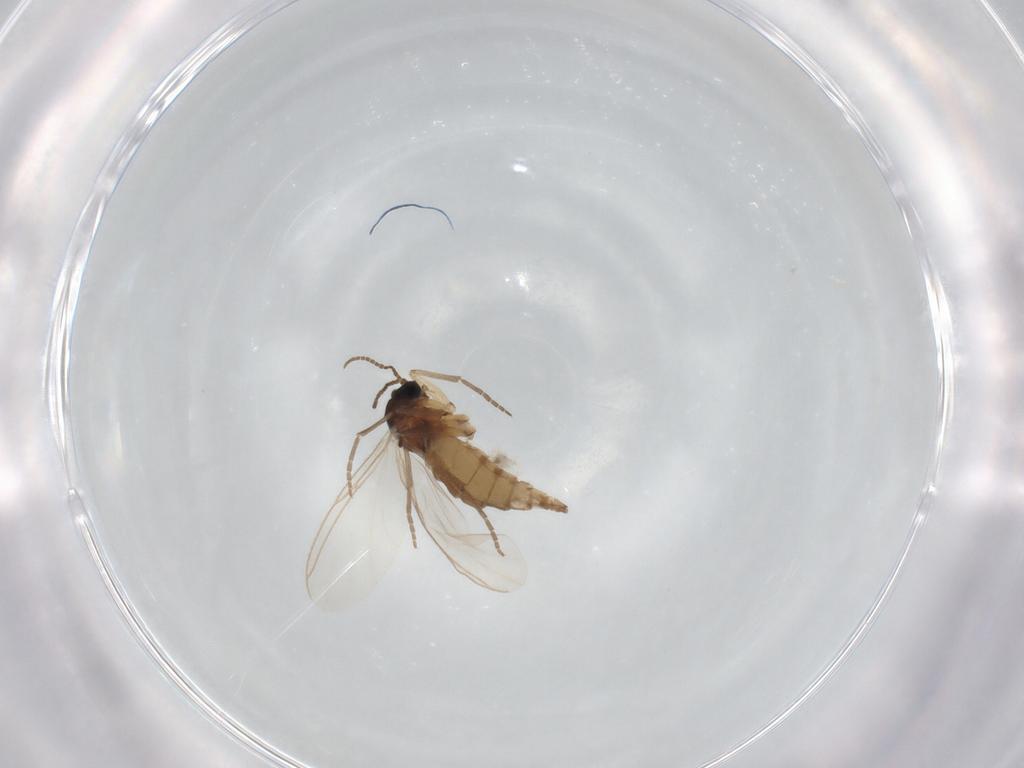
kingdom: Animalia
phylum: Arthropoda
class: Insecta
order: Diptera
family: Sciaridae
